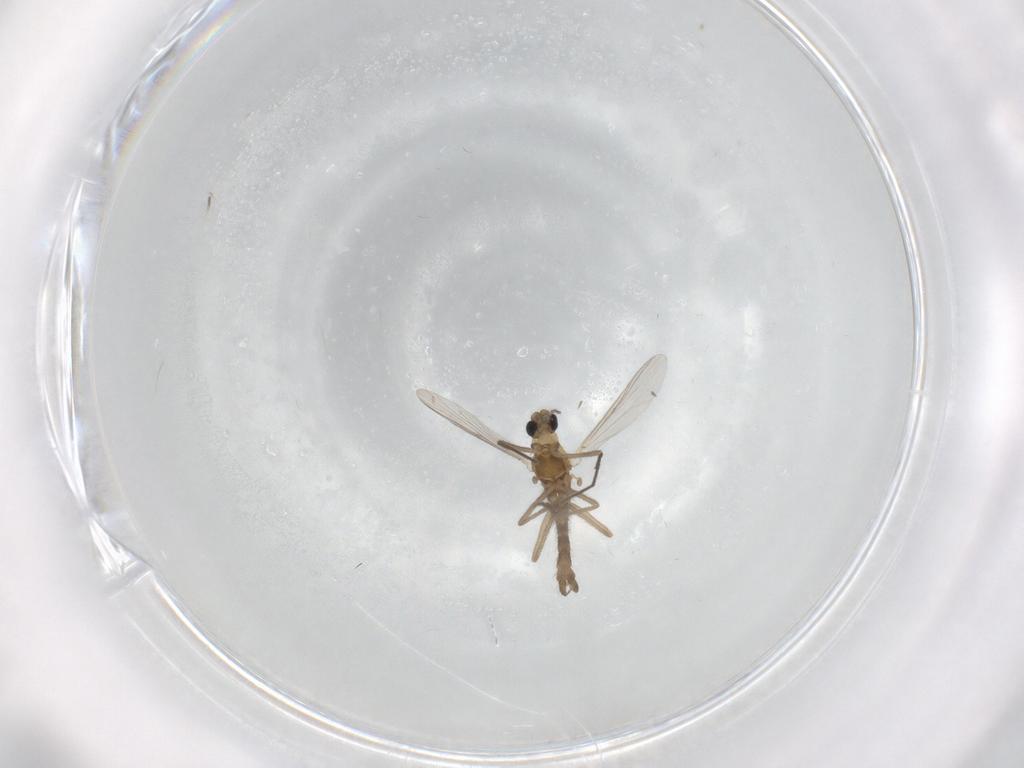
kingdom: Animalia
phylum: Arthropoda
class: Insecta
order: Diptera
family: Chironomidae
